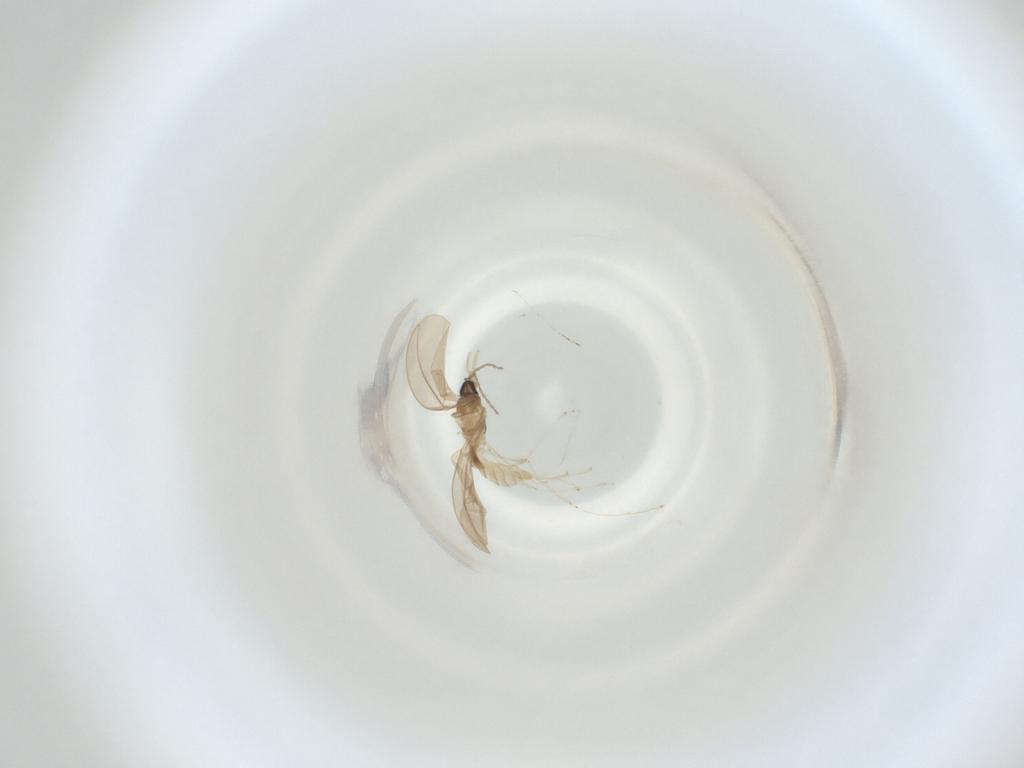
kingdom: Animalia
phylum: Arthropoda
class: Insecta
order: Diptera
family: Cecidomyiidae
